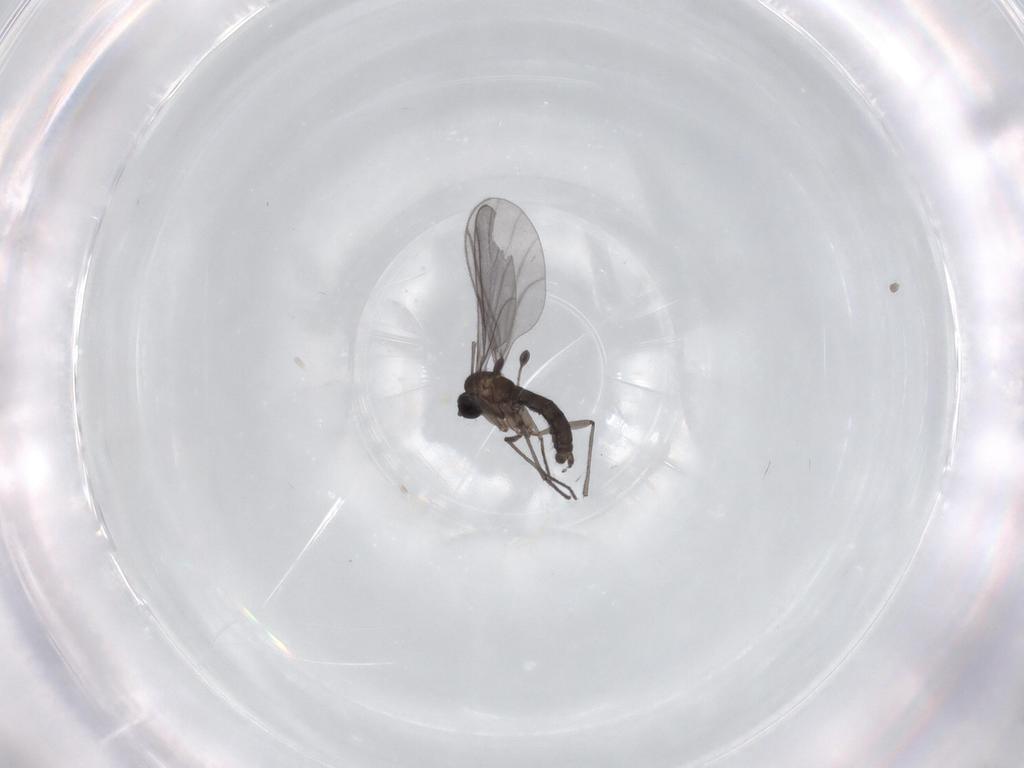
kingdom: Animalia
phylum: Arthropoda
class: Insecta
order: Diptera
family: Sciaridae
